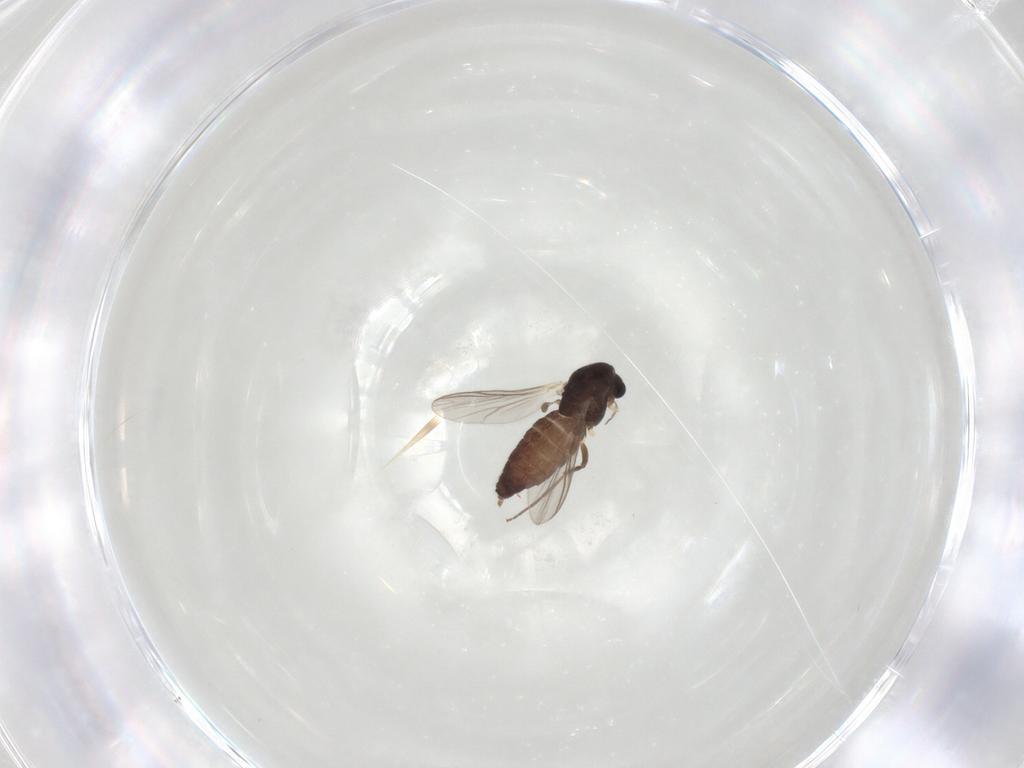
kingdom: Animalia
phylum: Arthropoda
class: Insecta
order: Diptera
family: Chironomidae
